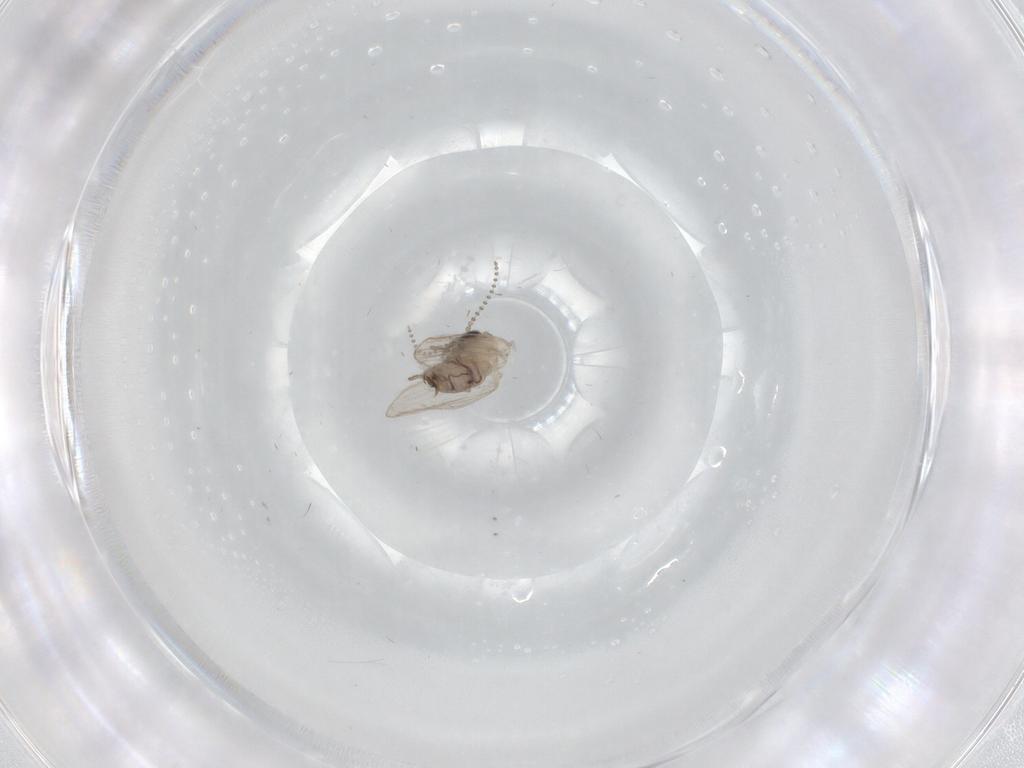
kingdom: Animalia
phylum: Arthropoda
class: Insecta
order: Diptera
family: Psychodidae
